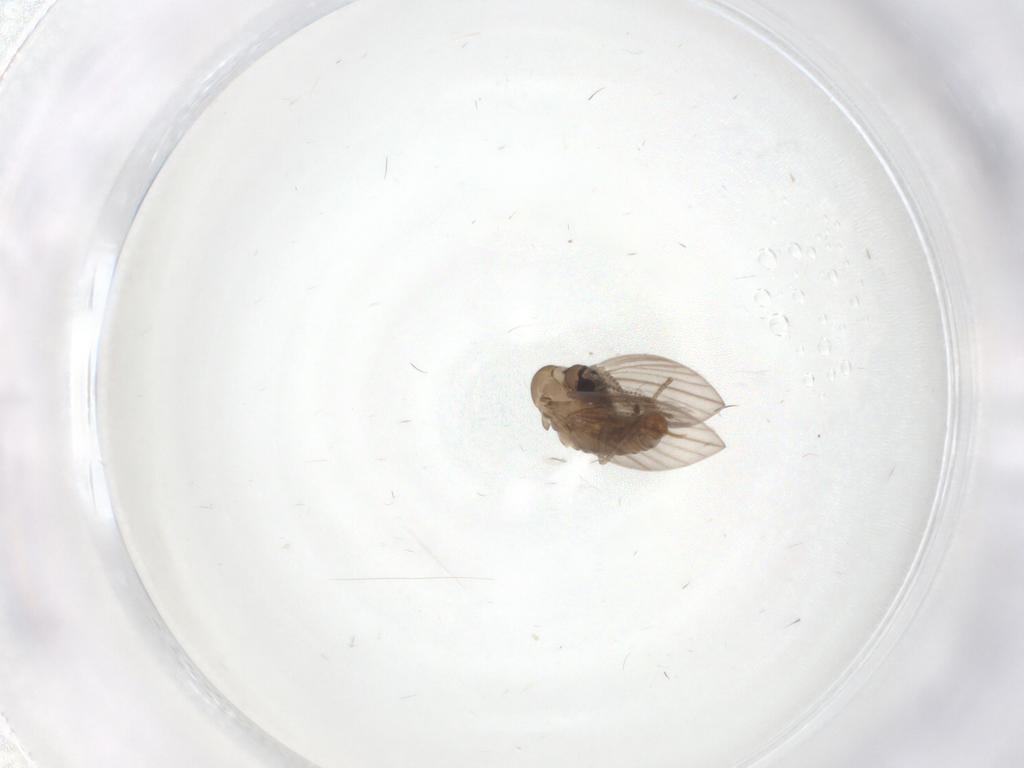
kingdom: Animalia
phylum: Arthropoda
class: Insecta
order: Diptera
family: Psychodidae
